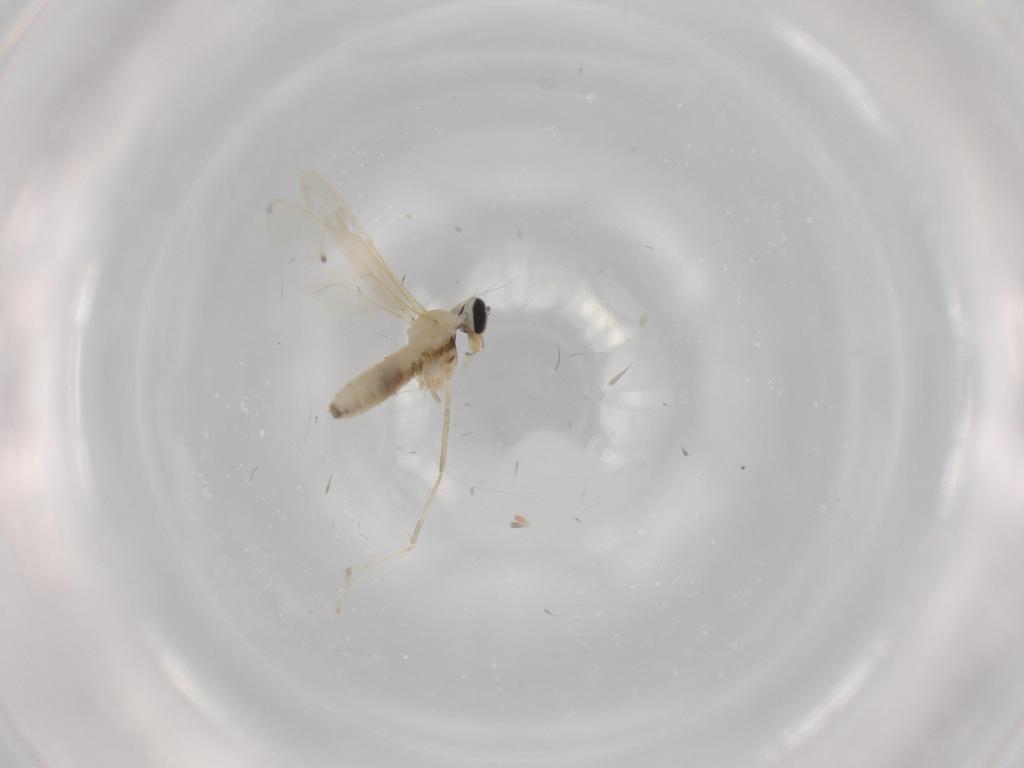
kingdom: Animalia
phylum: Arthropoda
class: Insecta
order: Diptera
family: Cecidomyiidae
